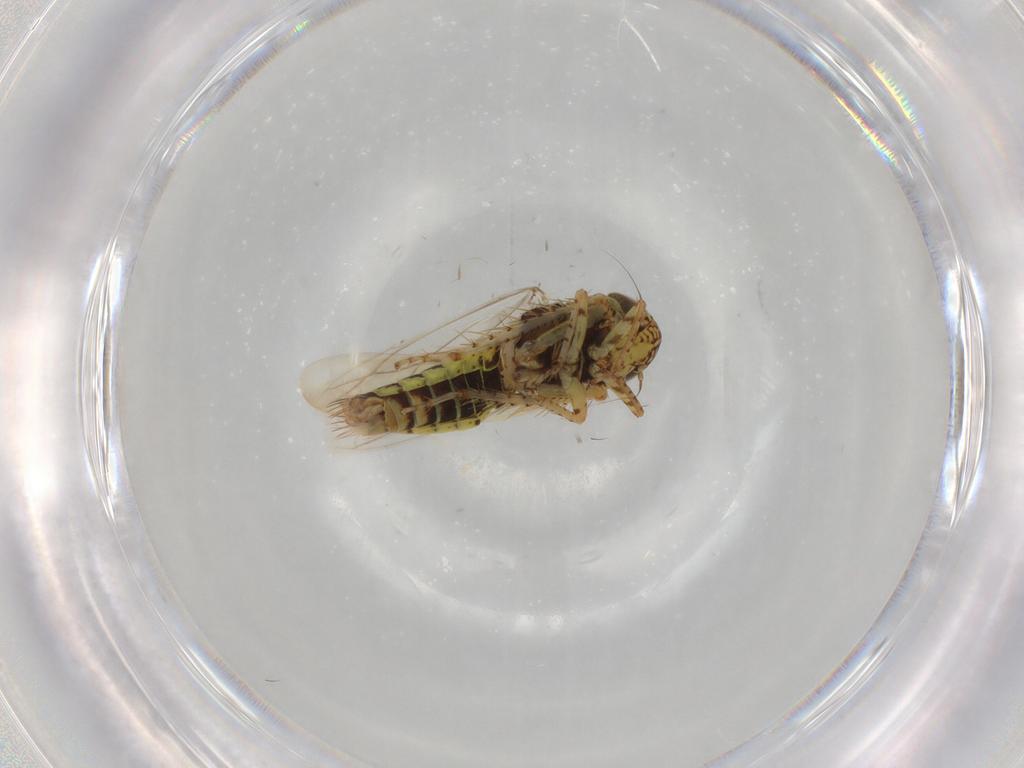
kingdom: Animalia
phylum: Arthropoda
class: Insecta
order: Hemiptera
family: Cicadellidae
